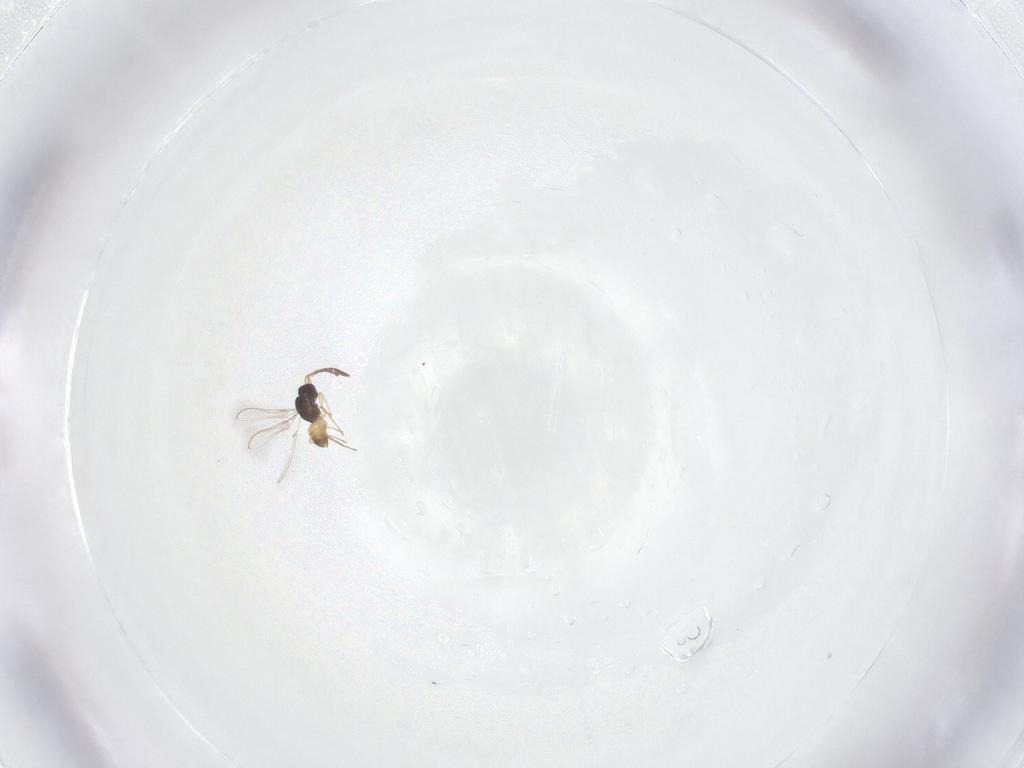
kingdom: Animalia
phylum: Arthropoda
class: Insecta
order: Hymenoptera
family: Mymaridae
